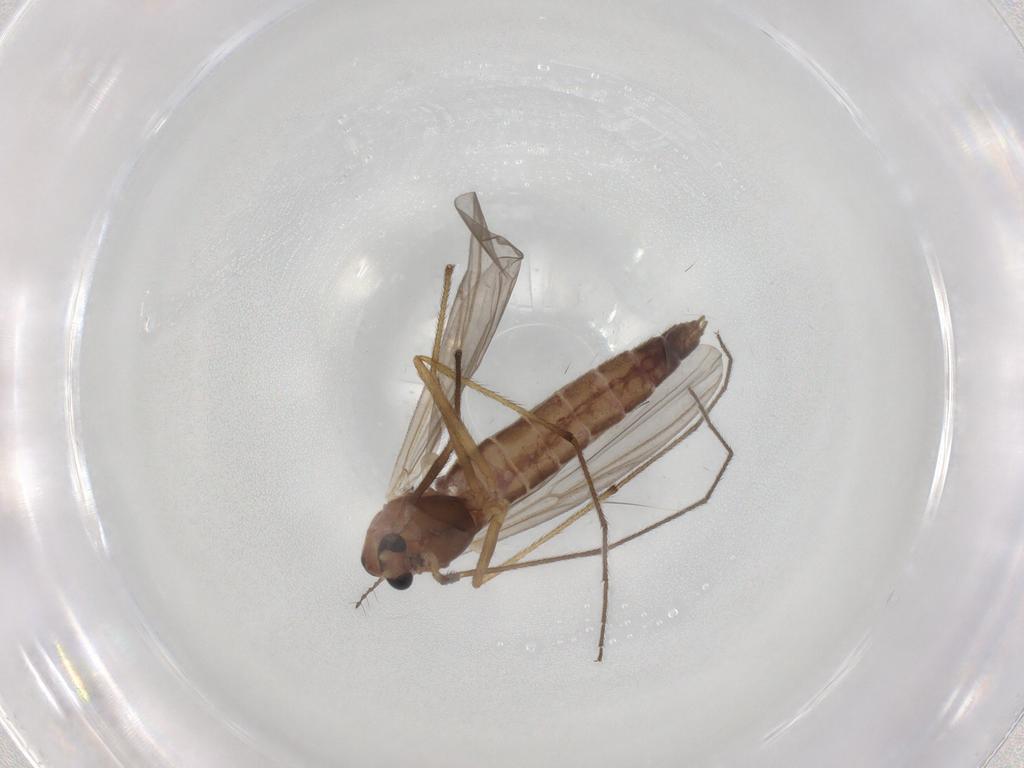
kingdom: Animalia
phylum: Arthropoda
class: Insecta
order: Diptera
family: Chironomidae
